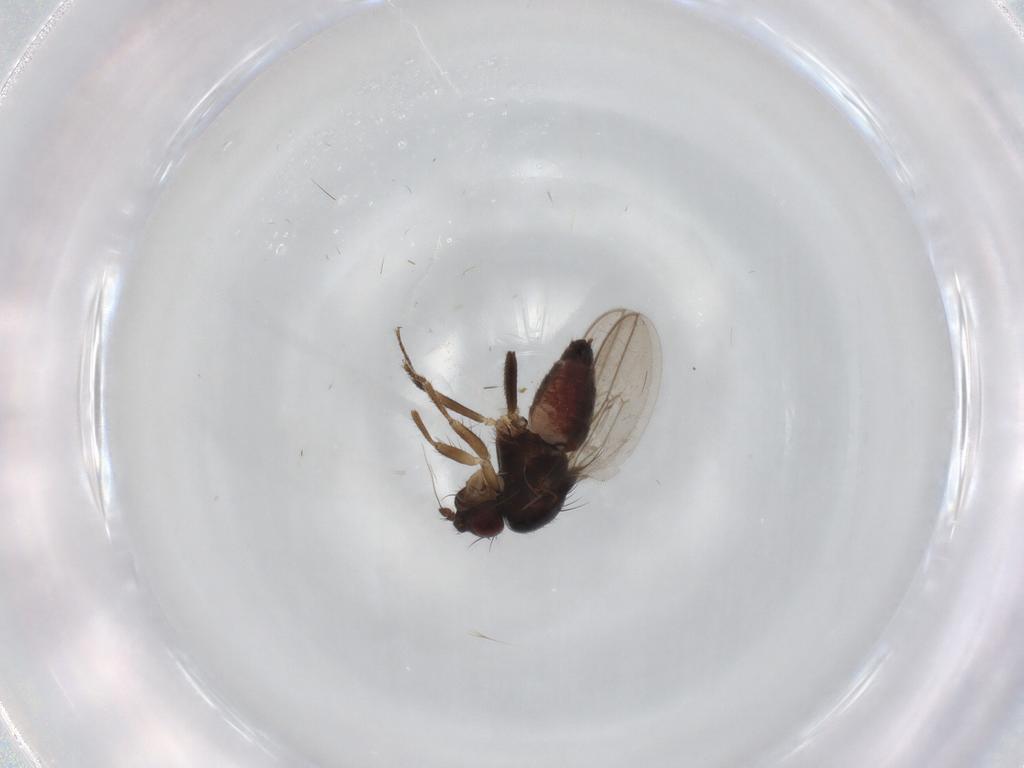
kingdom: Animalia
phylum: Arthropoda
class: Insecta
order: Diptera
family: Sphaeroceridae
